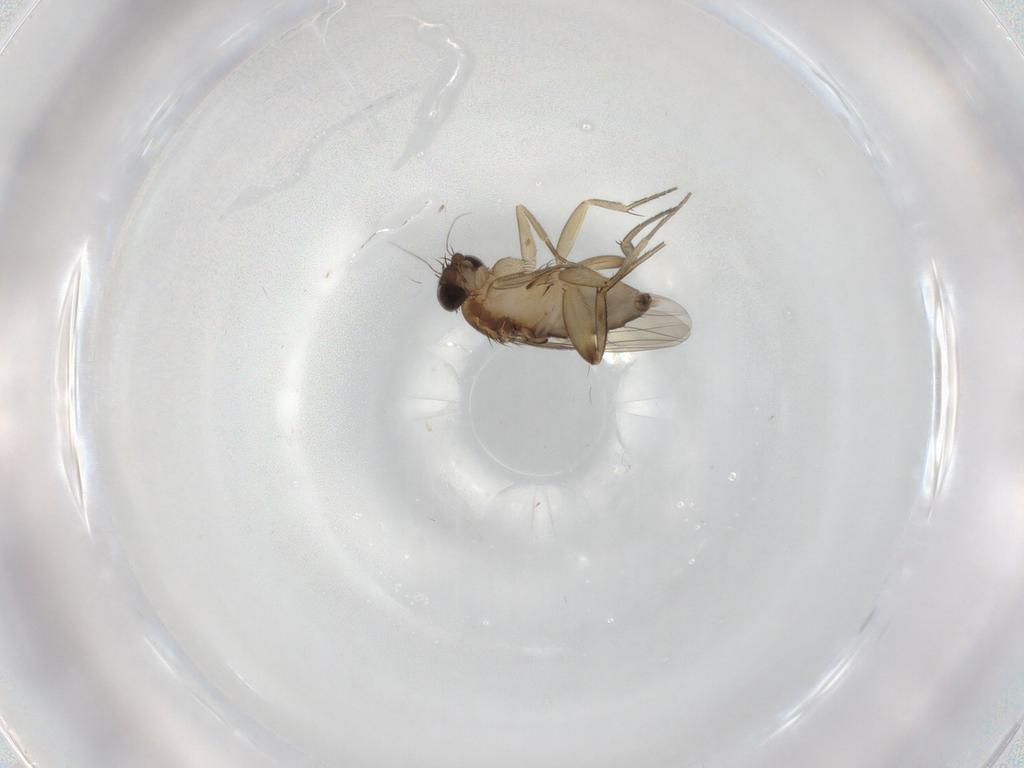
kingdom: Animalia
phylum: Arthropoda
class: Insecta
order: Diptera
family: Phoridae
